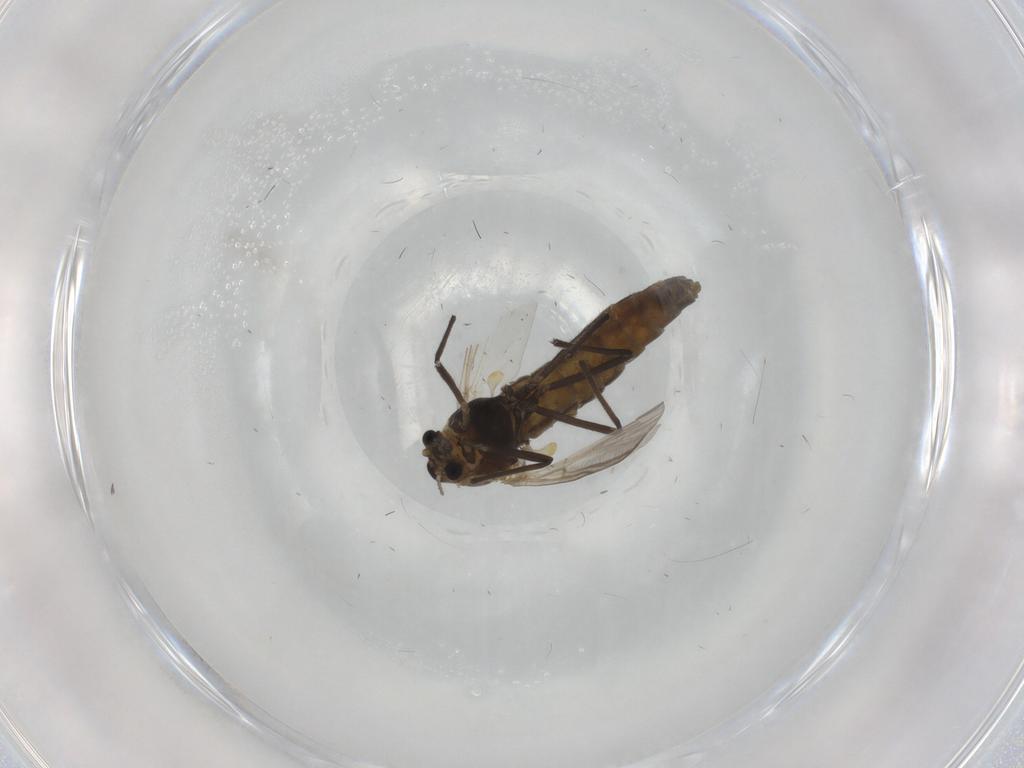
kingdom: Animalia
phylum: Arthropoda
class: Insecta
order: Diptera
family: Chironomidae
